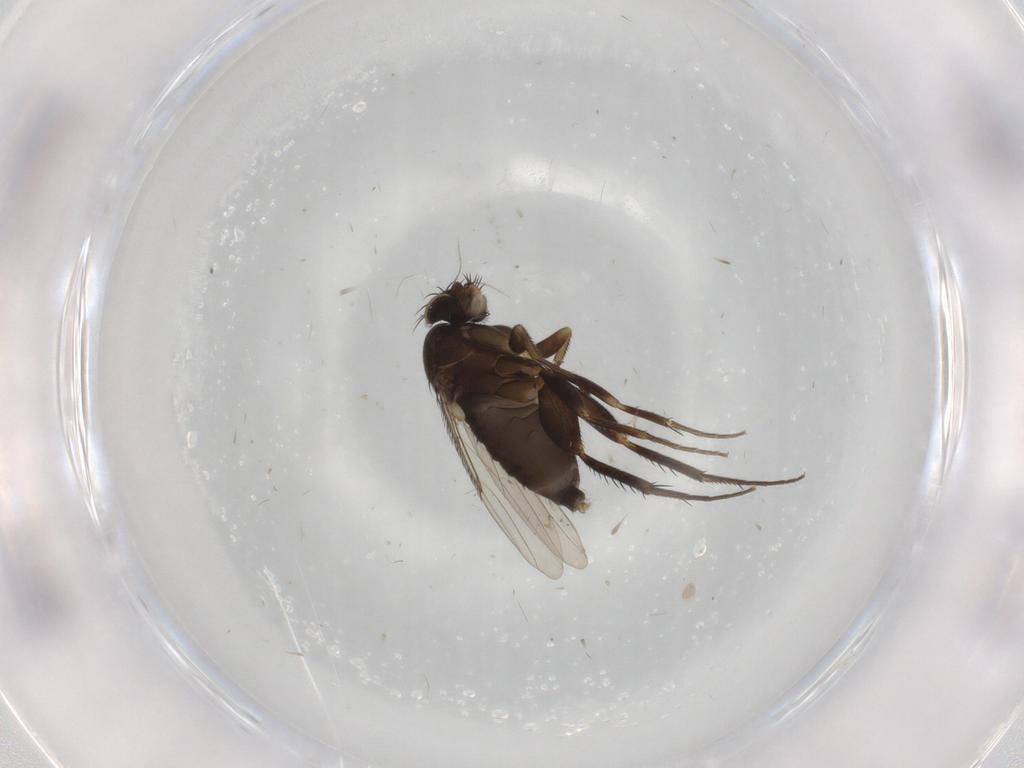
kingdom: Animalia
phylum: Arthropoda
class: Insecta
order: Diptera
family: Phoridae
